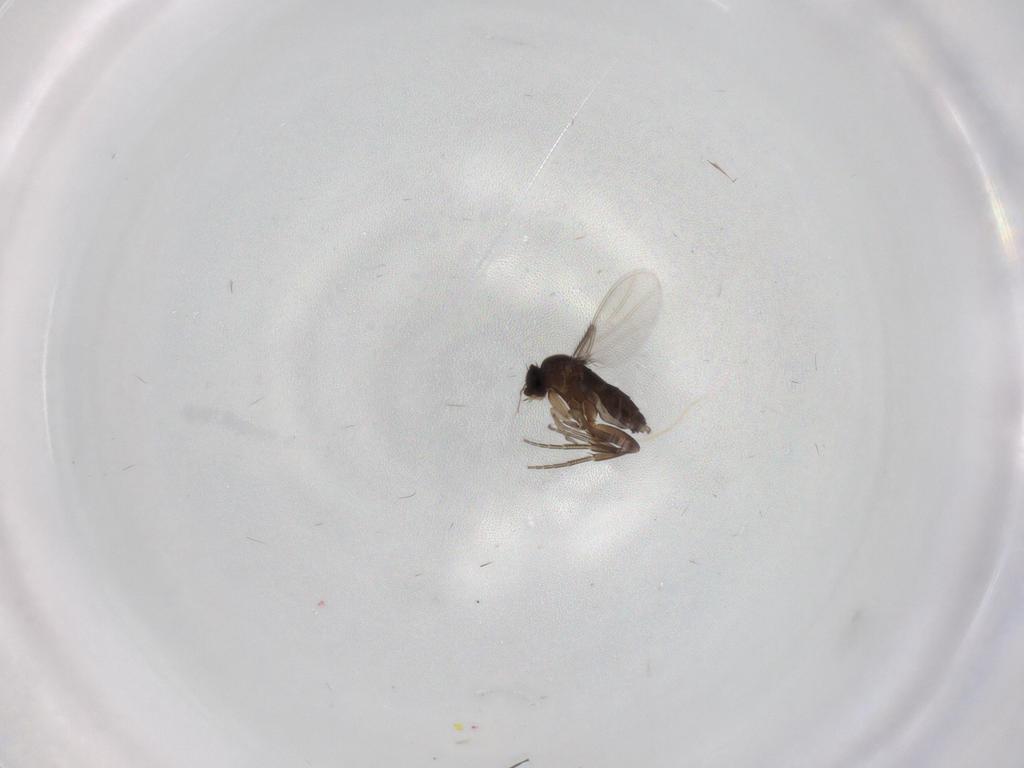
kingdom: Animalia
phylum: Arthropoda
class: Insecta
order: Diptera
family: Phoridae
